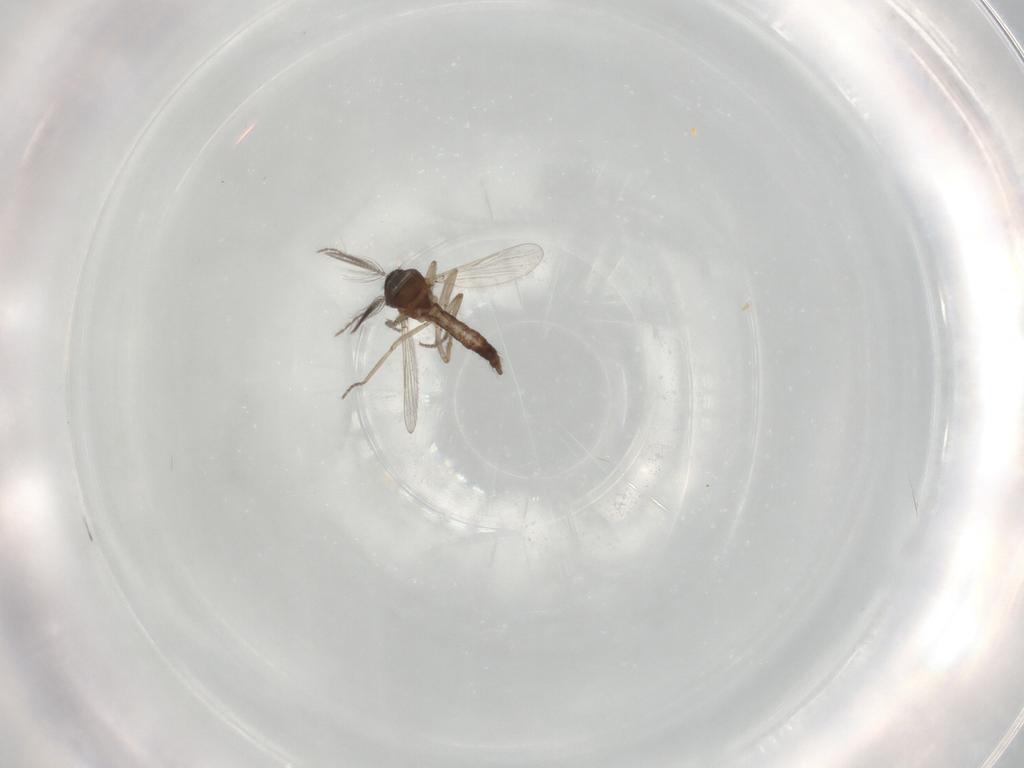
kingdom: Animalia
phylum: Arthropoda
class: Insecta
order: Diptera
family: Ceratopogonidae
